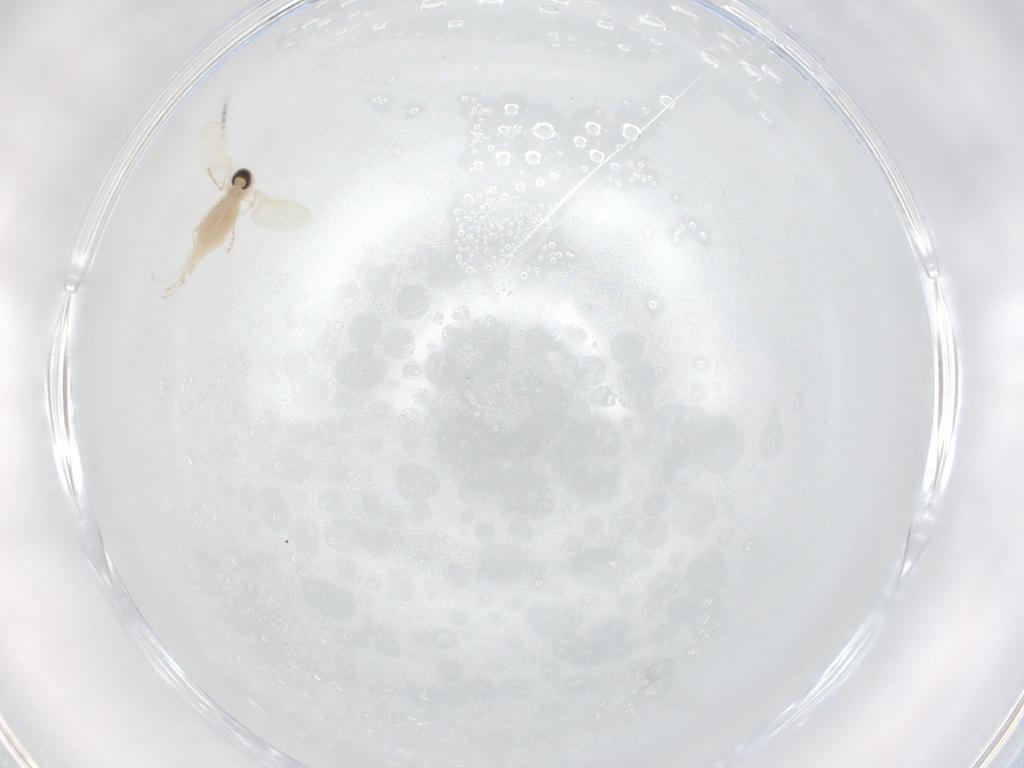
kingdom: Animalia
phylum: Arthropoda
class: Insecta
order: Diptera
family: Cecidomyiidae
